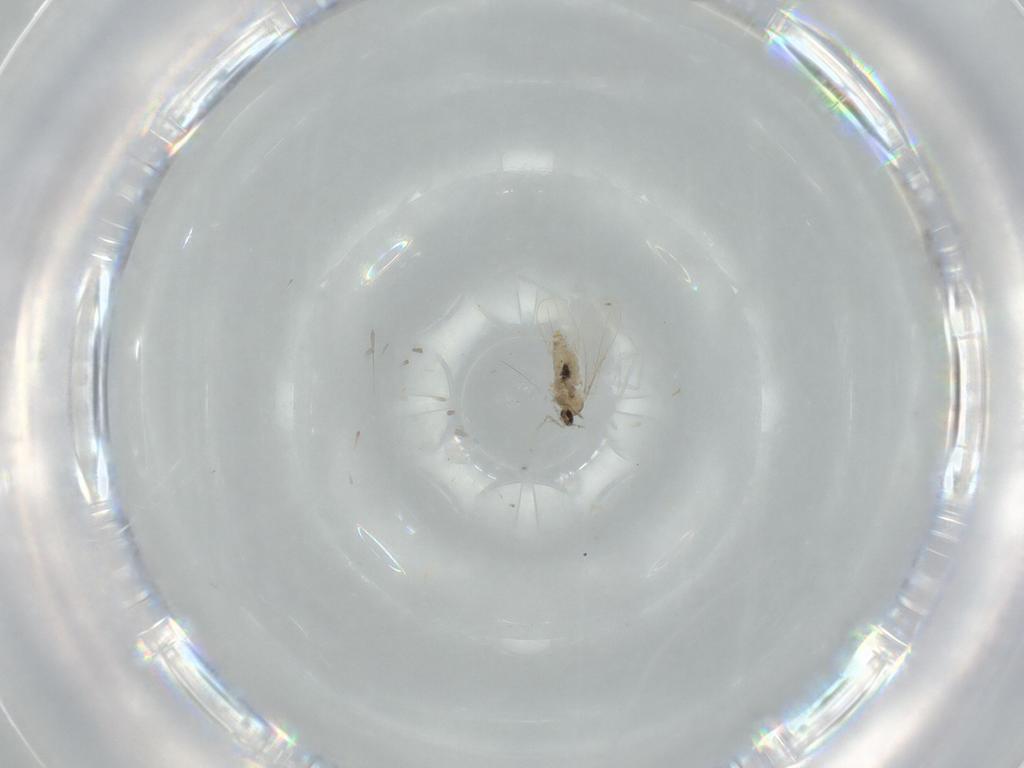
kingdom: Animalia
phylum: Arthropoda
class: Insecta
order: Diptera
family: Cecidomyiidae
